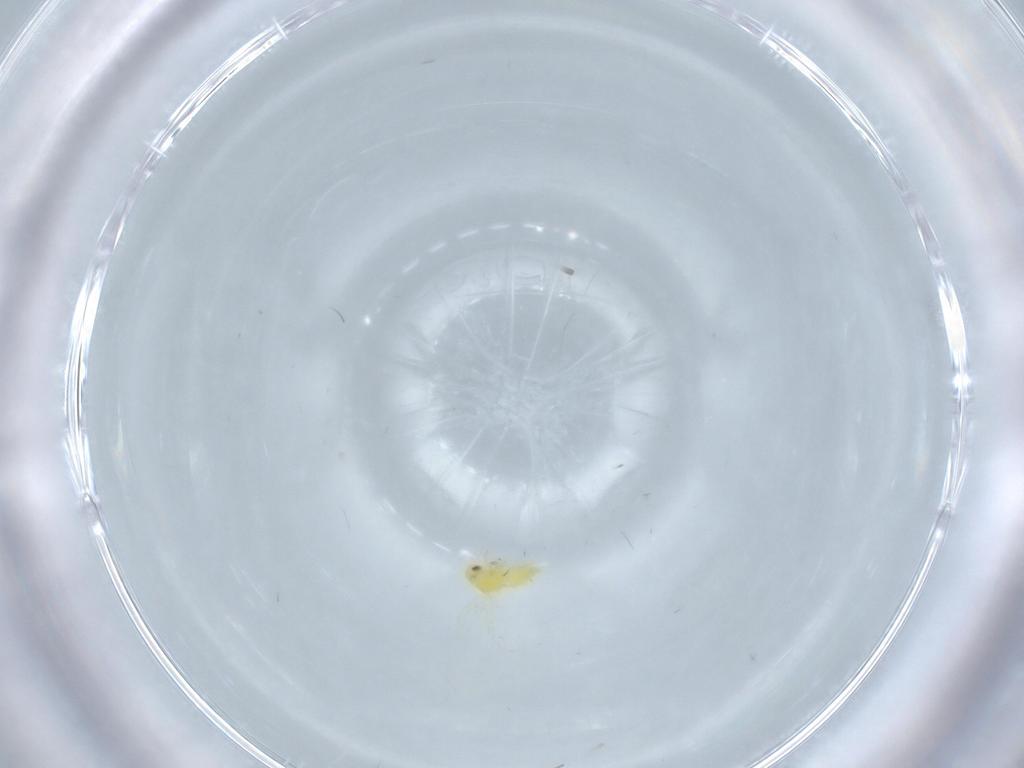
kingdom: Animalia
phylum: Arthropoda
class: Insecta
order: Hemiptera
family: Aleyrodidae
